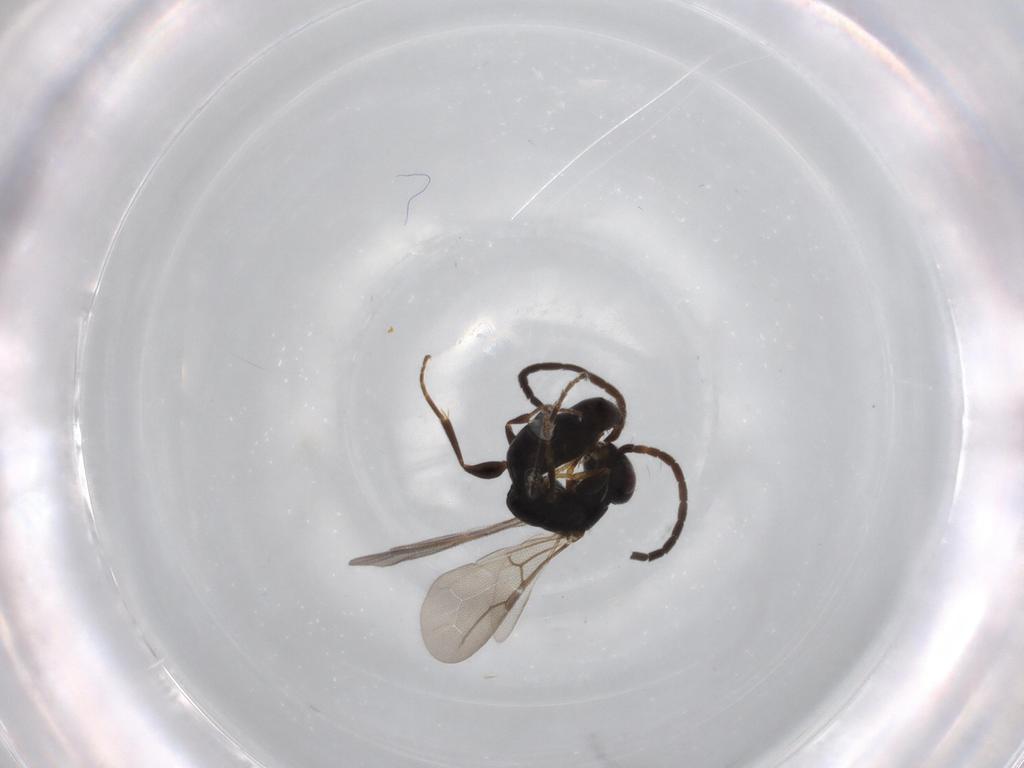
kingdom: Animalia
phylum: Arthropoda
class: Insecta
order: Hymenoptera
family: Bethylidae
